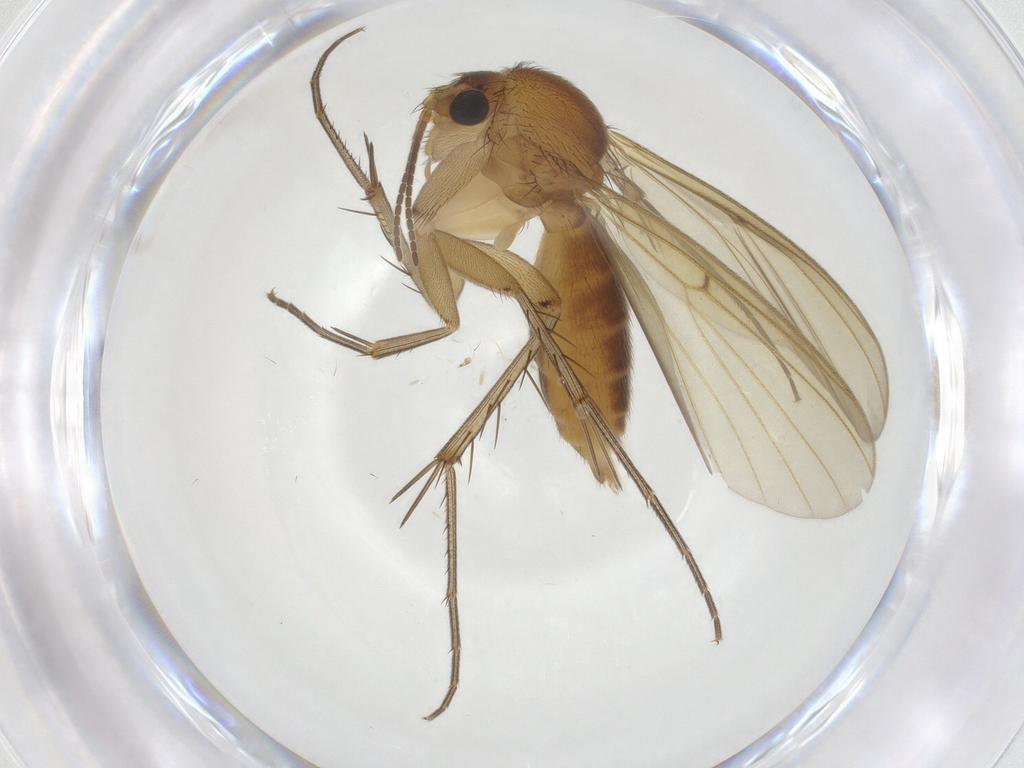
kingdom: Animalia
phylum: Arthropoda
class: Insecta
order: Diptera
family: Mycetophilidae
